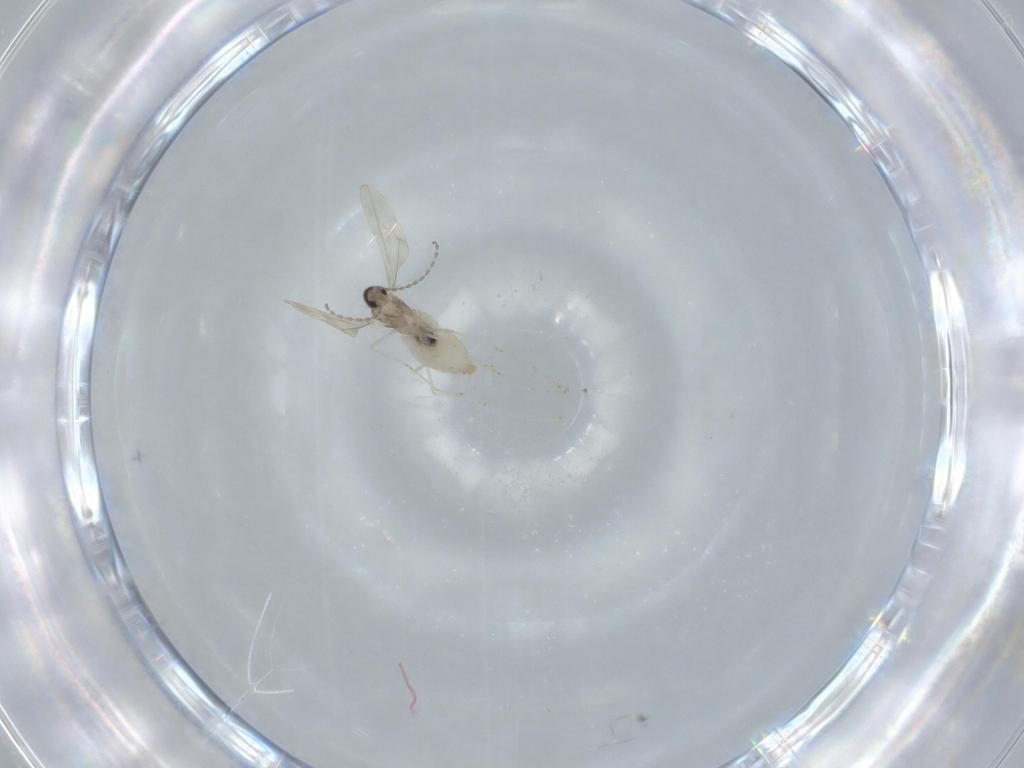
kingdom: Animalia
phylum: Arthropoda
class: Insecta
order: Diptera
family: Cecidomyiidae
